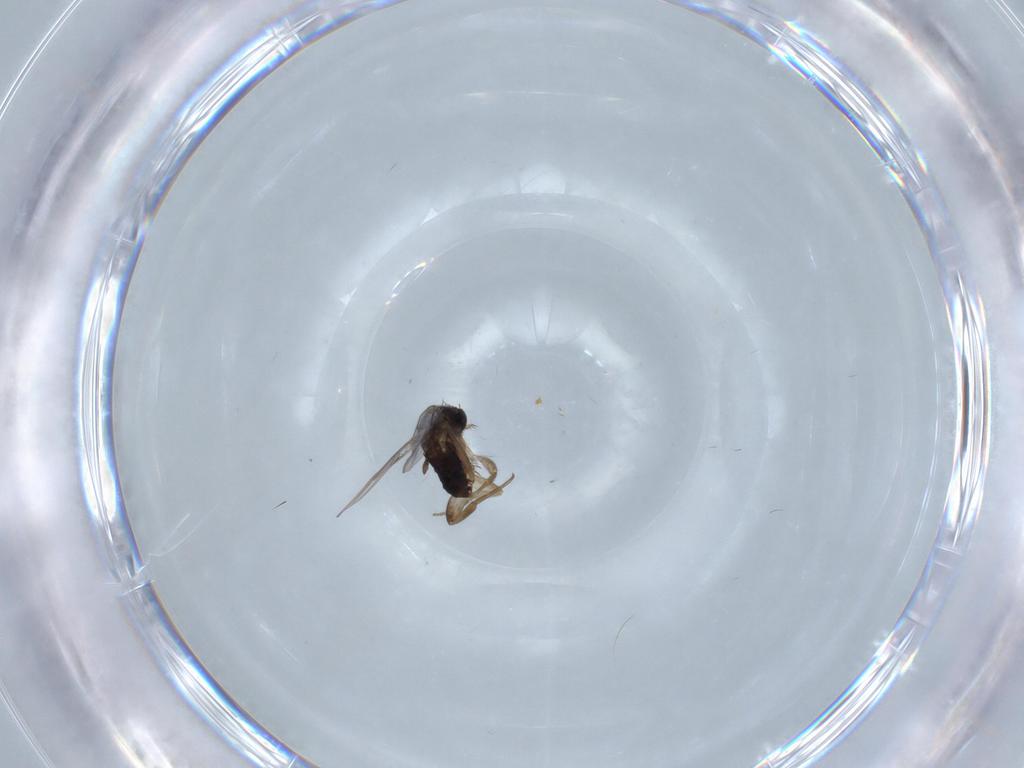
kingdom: Animalia
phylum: Arthropoda
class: Insecta
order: Diptera
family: Phoridae
